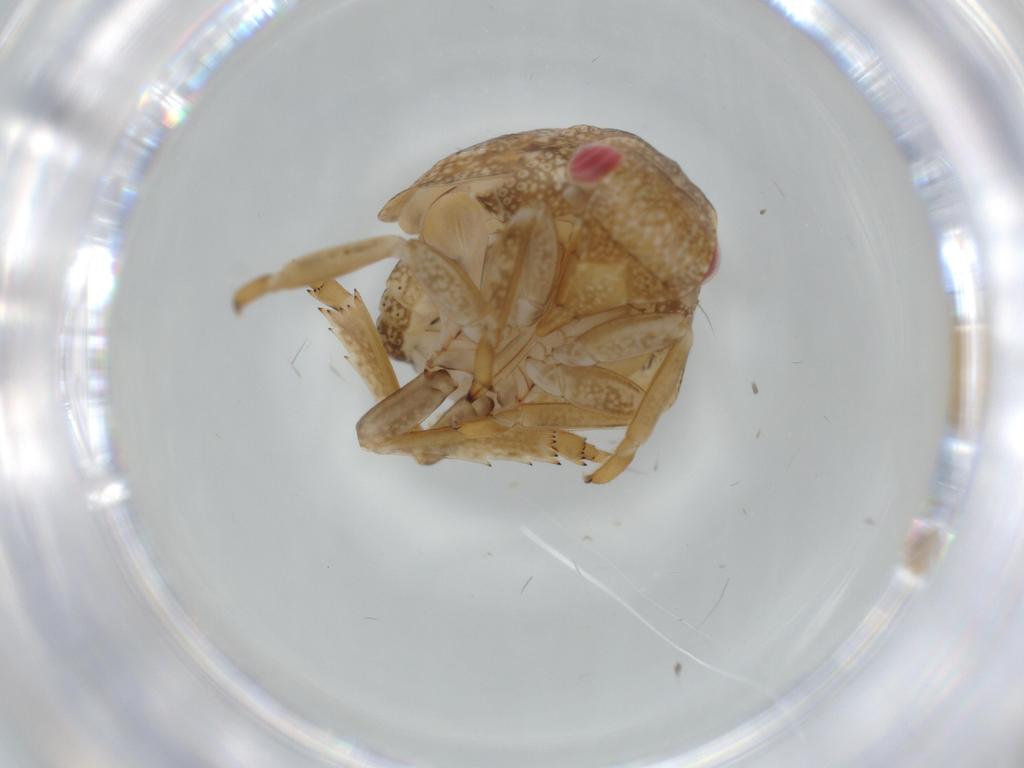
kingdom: Animalia
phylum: Arthropoda
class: Insecta
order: Hemiptera
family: Acanaloniidae
